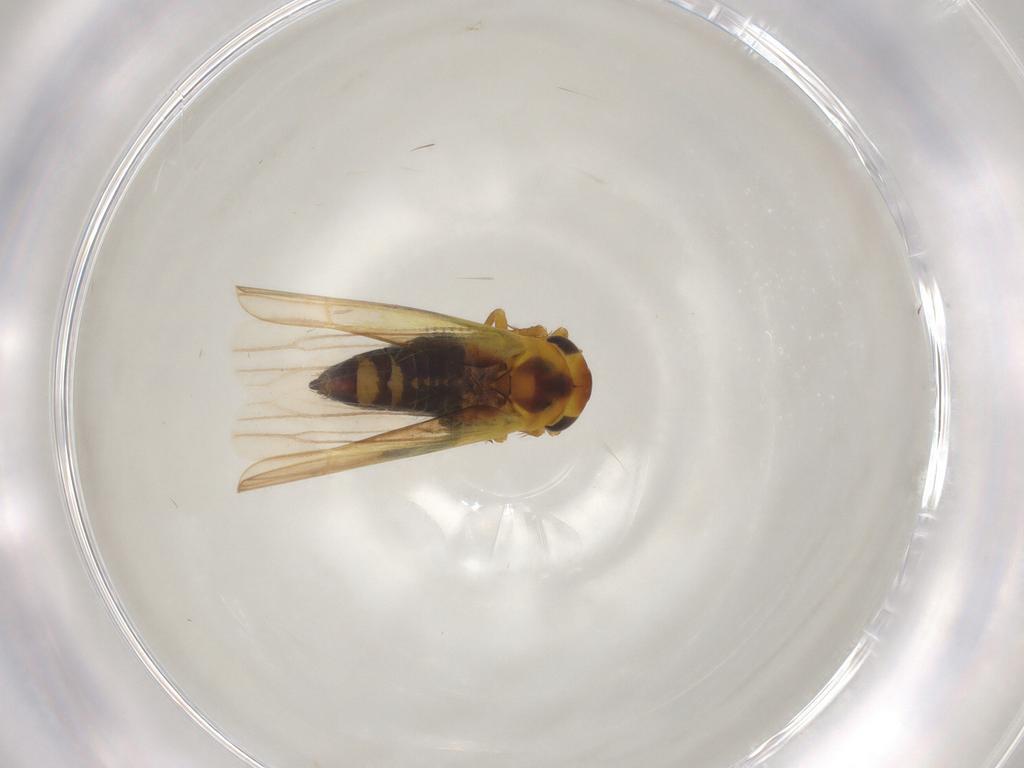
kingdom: Animalia
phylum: Arthropoda
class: Insecta
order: Hemiptera
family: Cicadellidae
